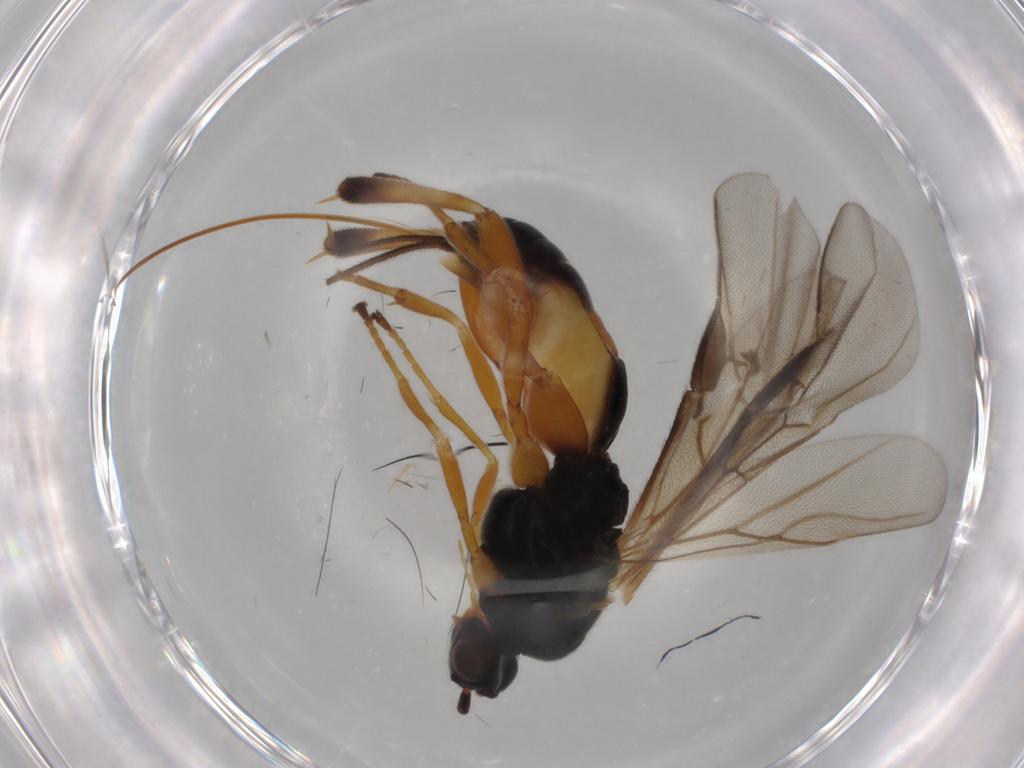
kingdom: Animalia
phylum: Arthropoda
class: Insecta
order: Hymenoptera
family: Braconidae
